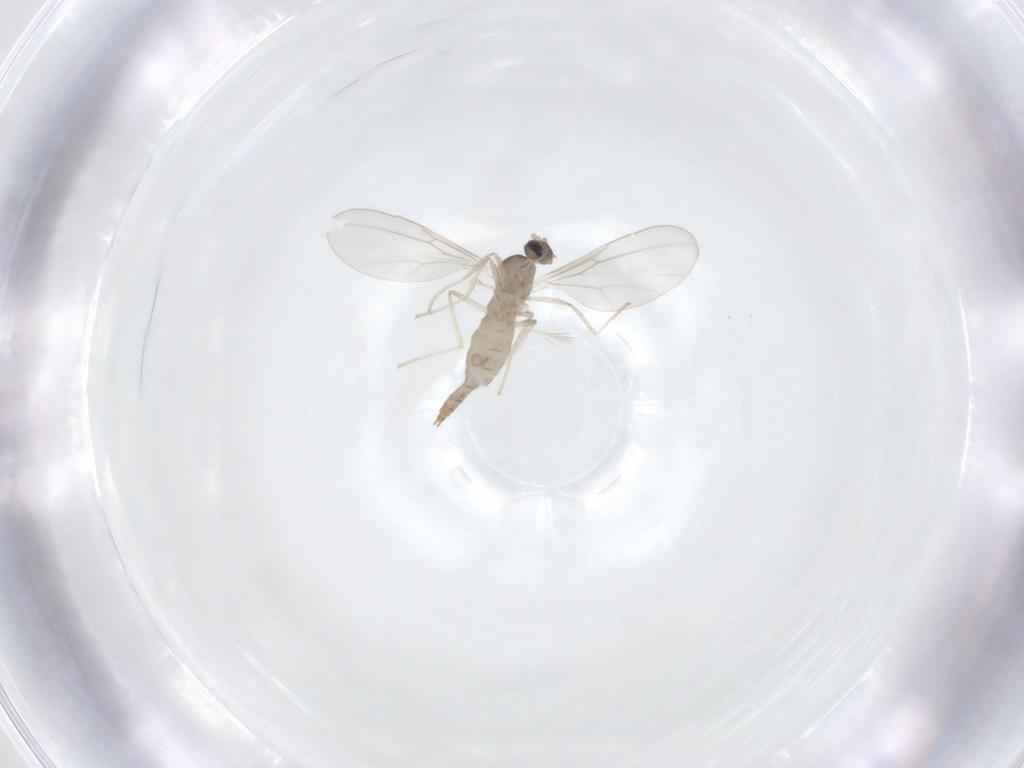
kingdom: Animalia
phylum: Arthropoda
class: Insecta
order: Diptera
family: Cecidomyiidae
